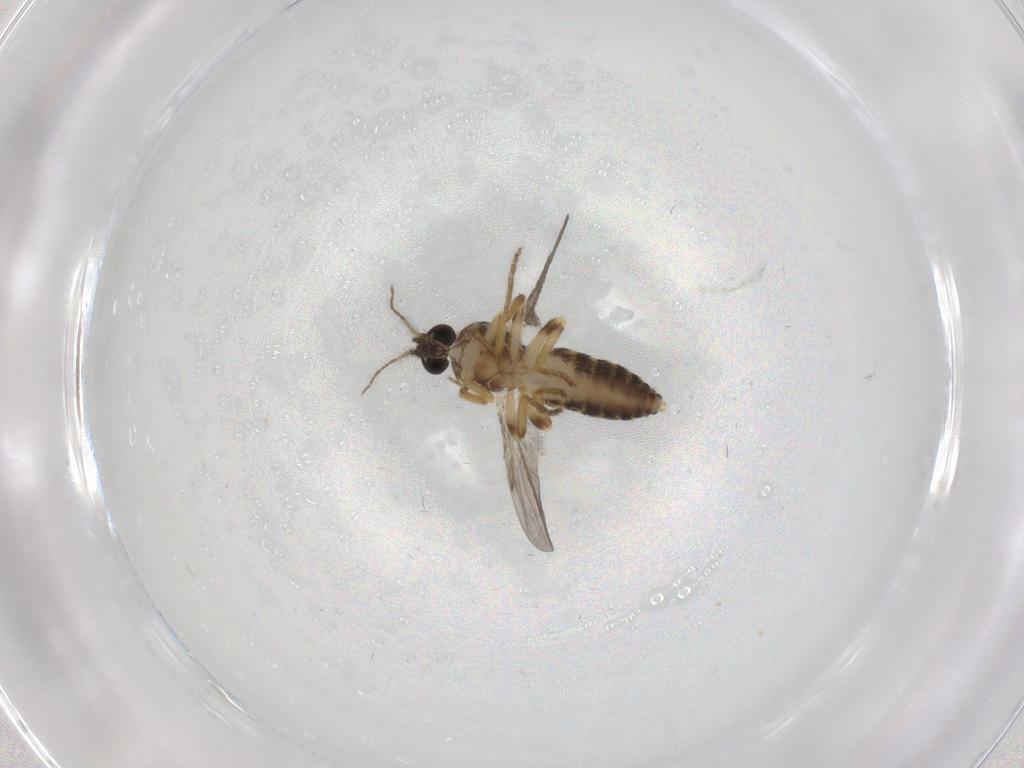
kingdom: Animalia
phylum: Arthropoda
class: Insecta
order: Diptera
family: Ceratopogonidae
